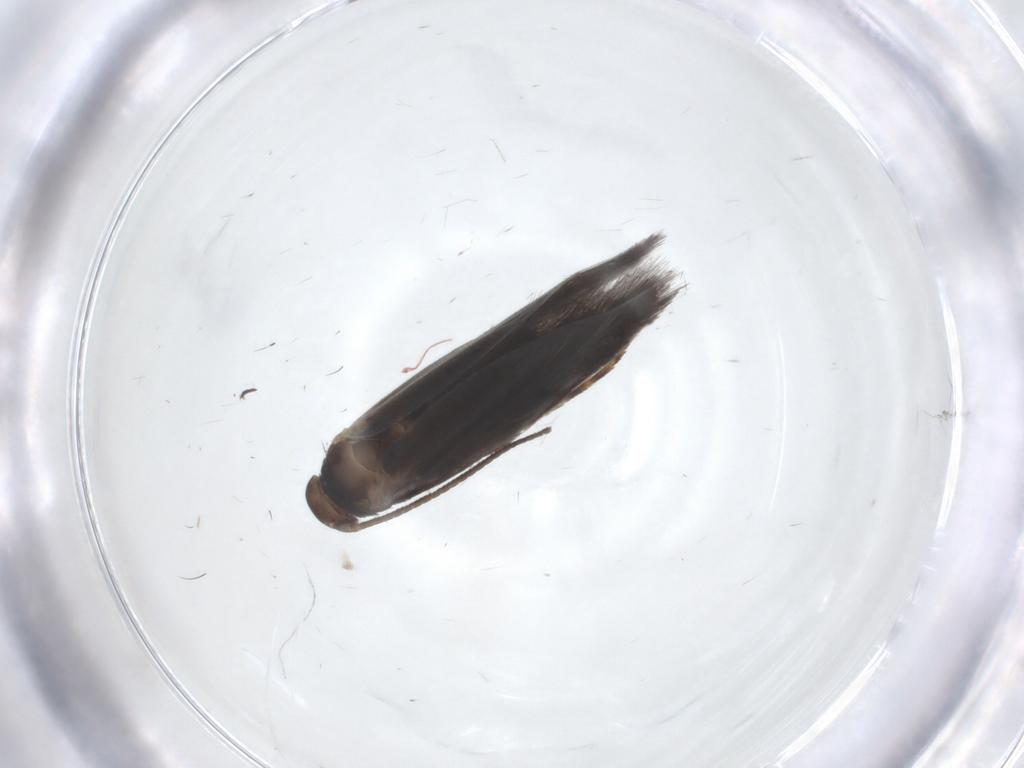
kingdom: Animalia
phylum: Arthropoda
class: Insecta
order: Lepidoptera
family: Elachistidae
